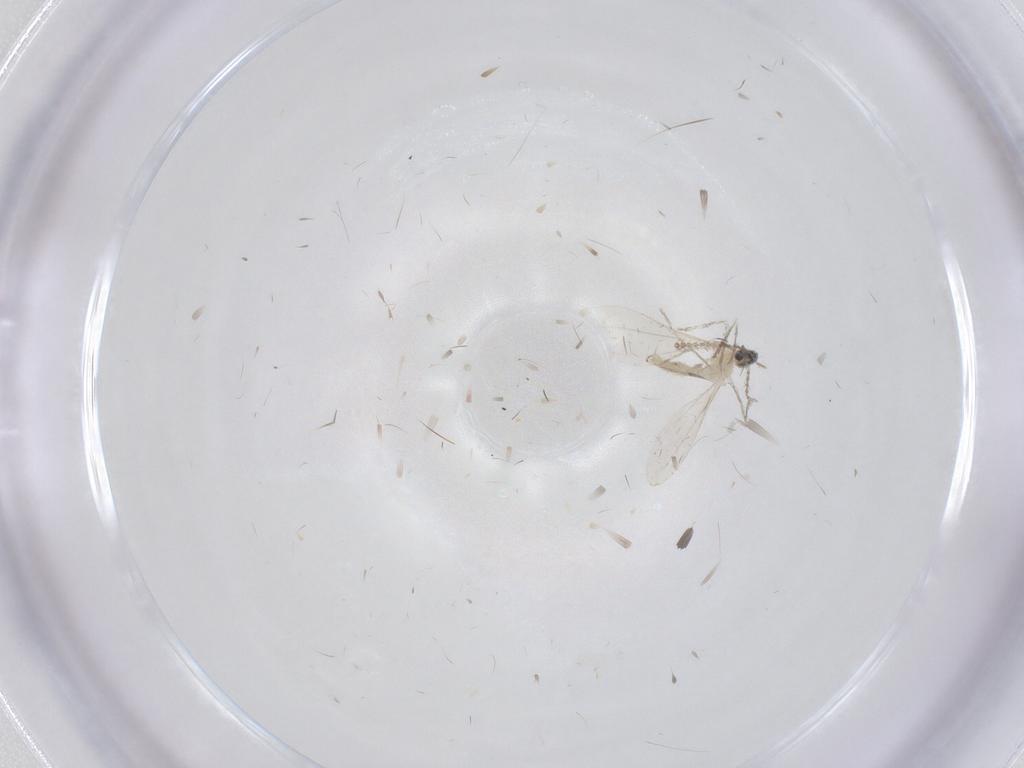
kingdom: Animalia
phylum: Arthropoda
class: Insecta
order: Diptera
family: Cecidomyiidae
